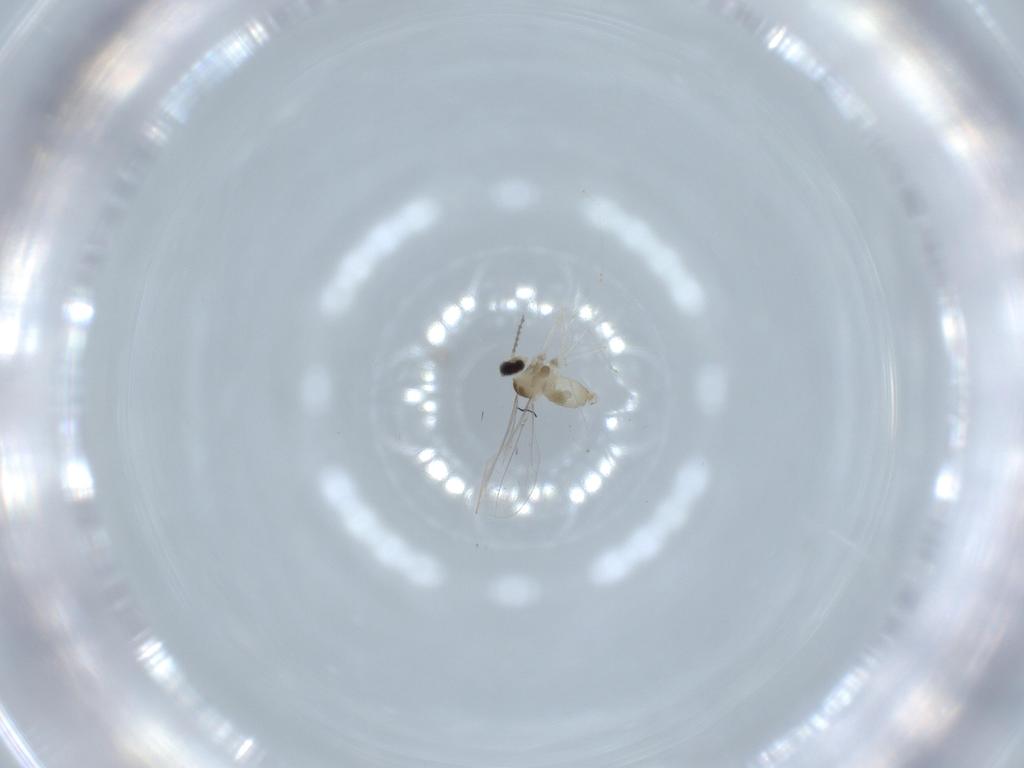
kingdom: Animalia
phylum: Arthropoda
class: Insecta
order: Diptera
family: Cecidomyiidae
